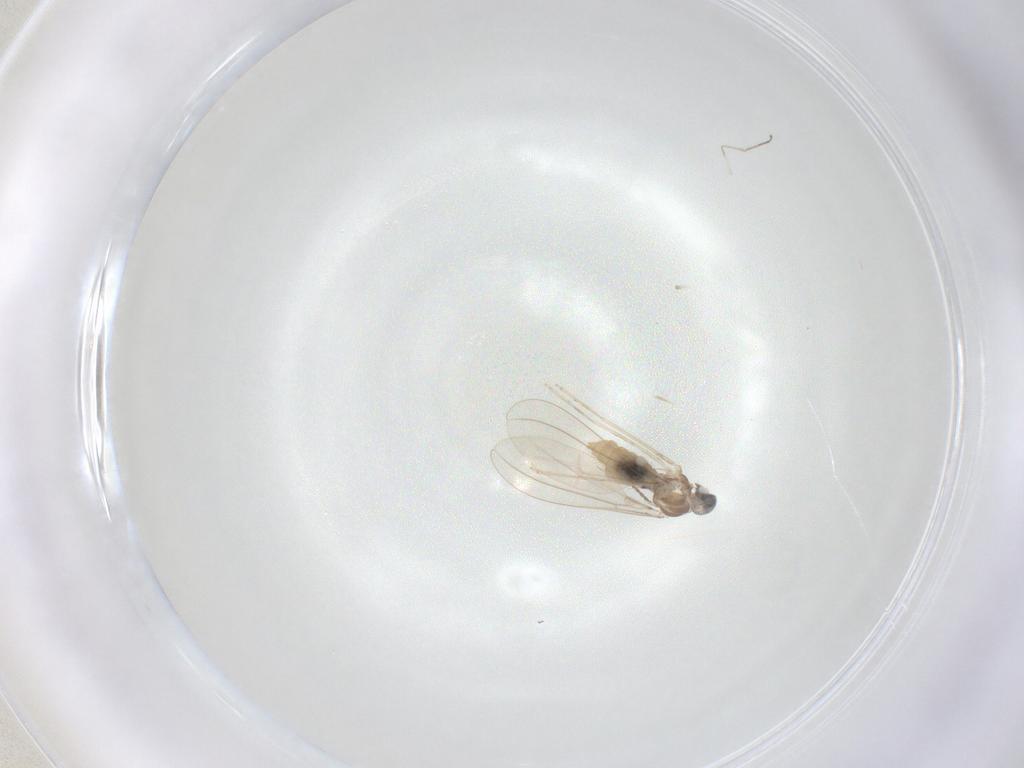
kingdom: Animalia
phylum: Arthropoda
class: Insecta
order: Diptera
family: Cecidomyiidae
